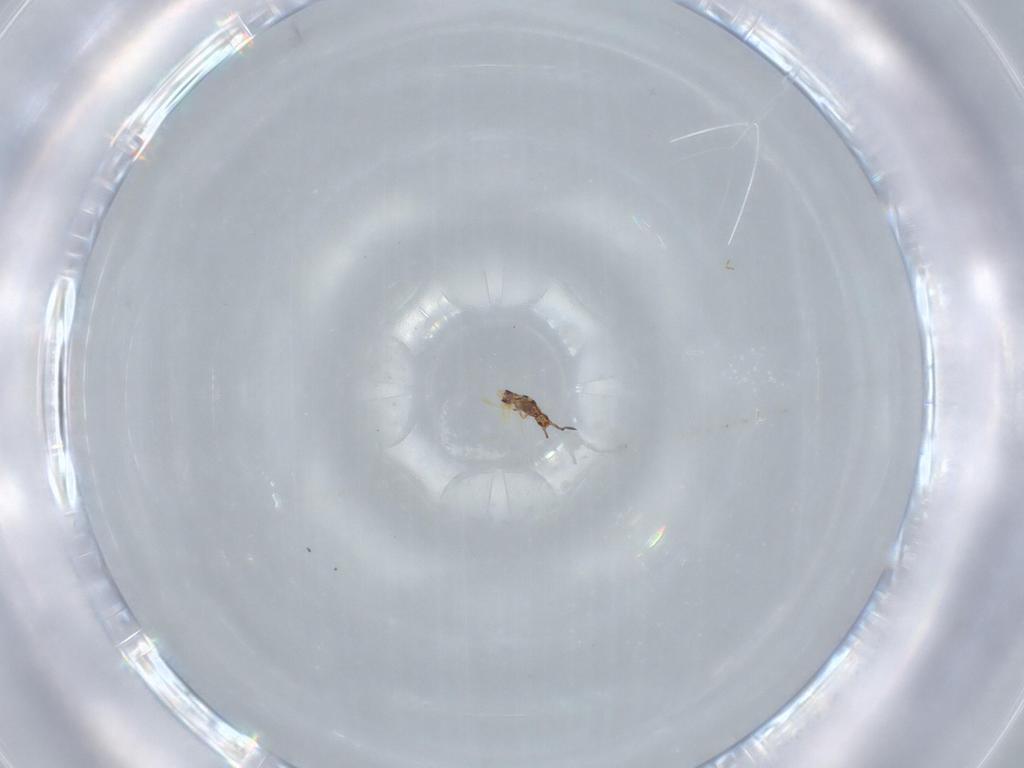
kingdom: Animalia
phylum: Arthropoda
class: Collembola
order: Entomobryomorpha
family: Entomobryidae
